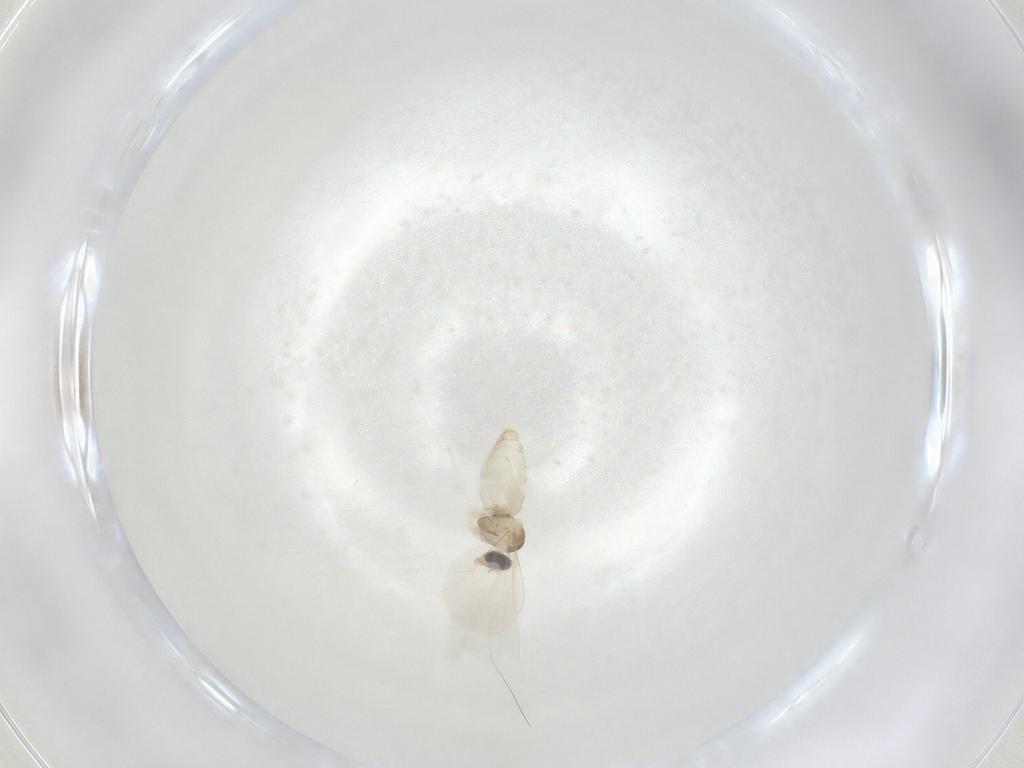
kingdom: Animalia
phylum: Arthropoda
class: Insecta
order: Diptera
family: Cecidomyiidae
